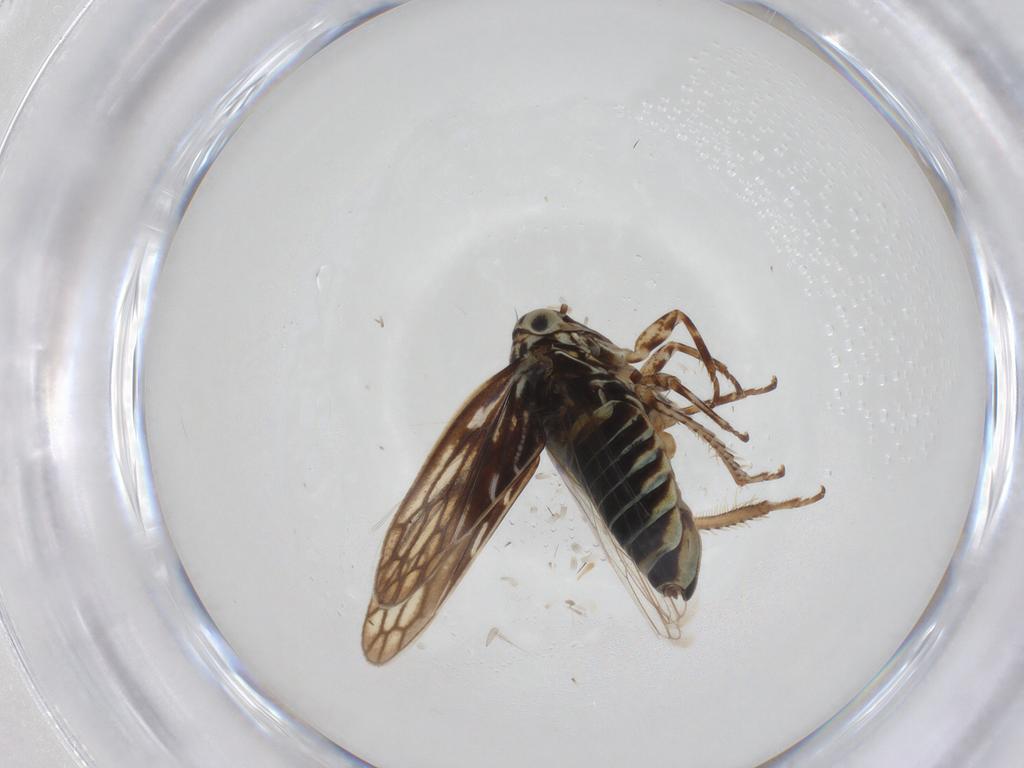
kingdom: Animalia
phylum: Arthropoda
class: Insecta
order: Hemiptera
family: Cicadellidae
